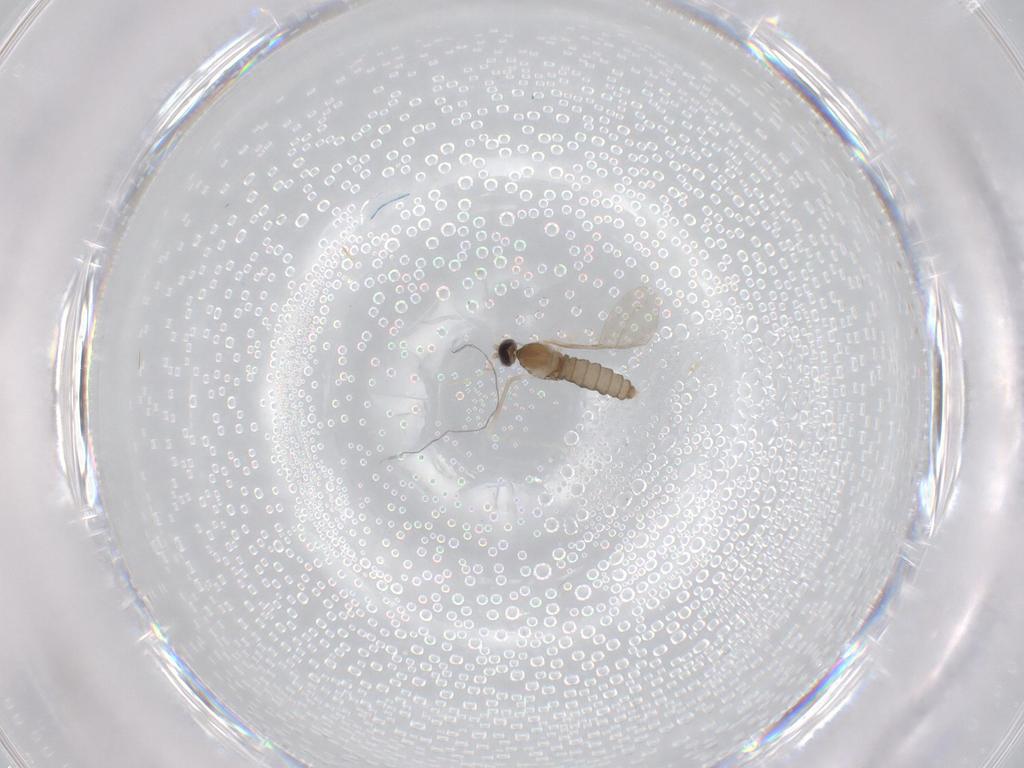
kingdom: Animalia
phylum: Arthropoda
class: Insecta
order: Diptera
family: Cecidomyiidae
